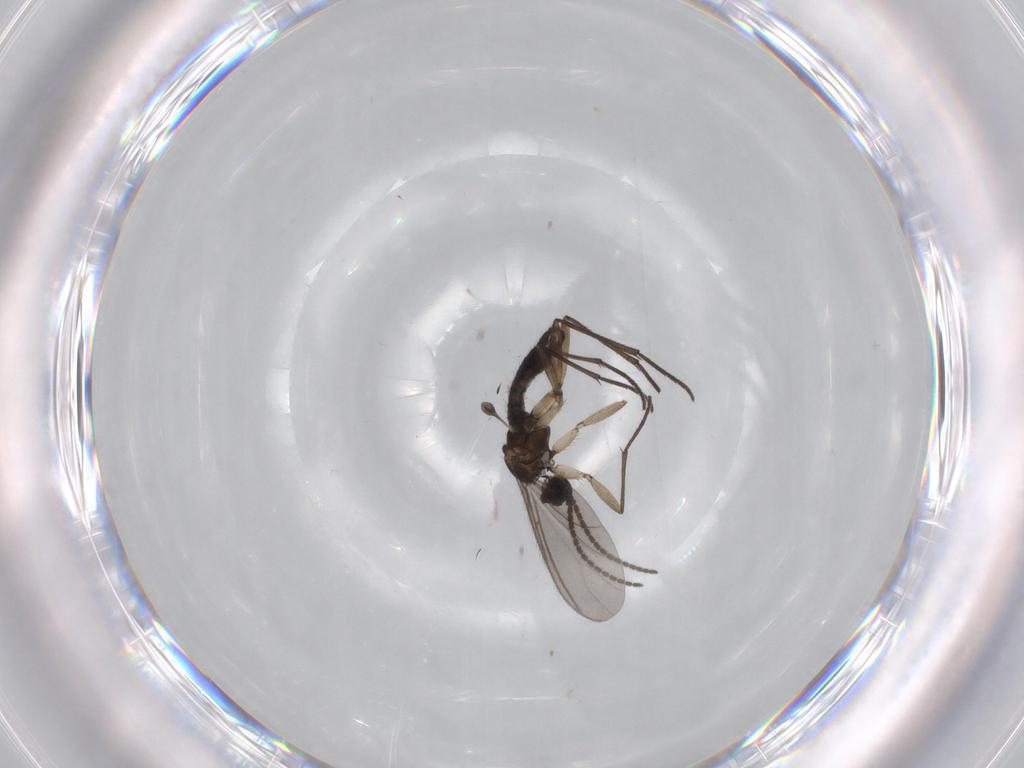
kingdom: Animalia
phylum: Arthropoda
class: Insecta
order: Diptera
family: Sciaridae
